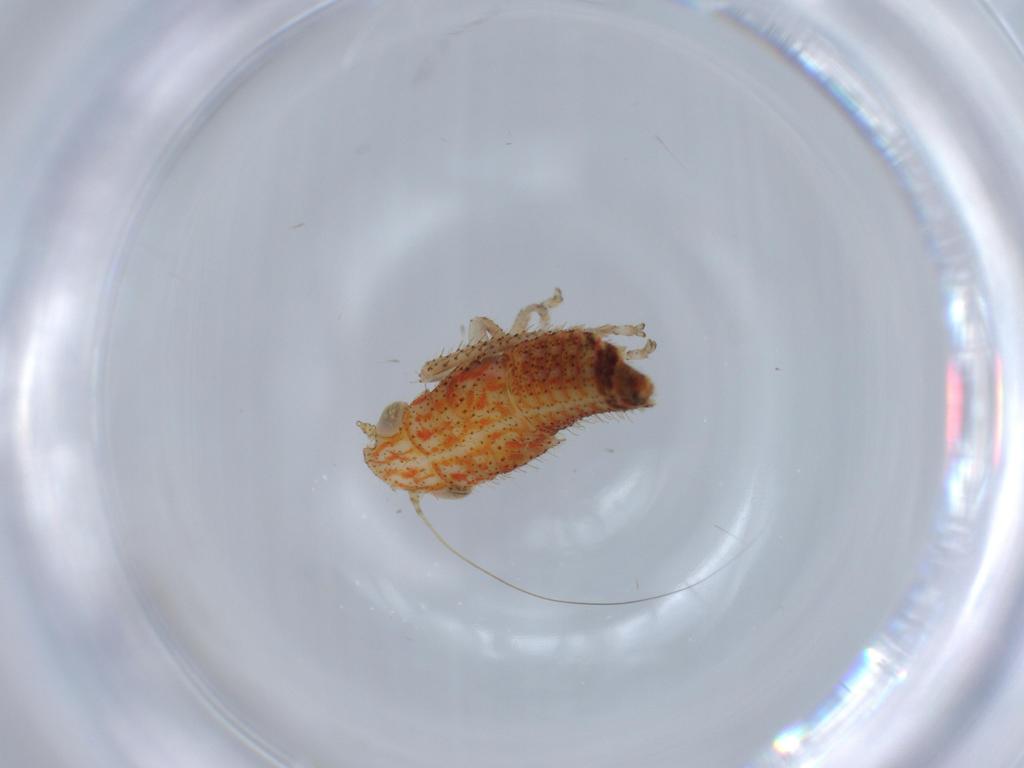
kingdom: Animalia
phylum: Arthropoda
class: Insecta
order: Hemiptera
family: Cicadellidae
